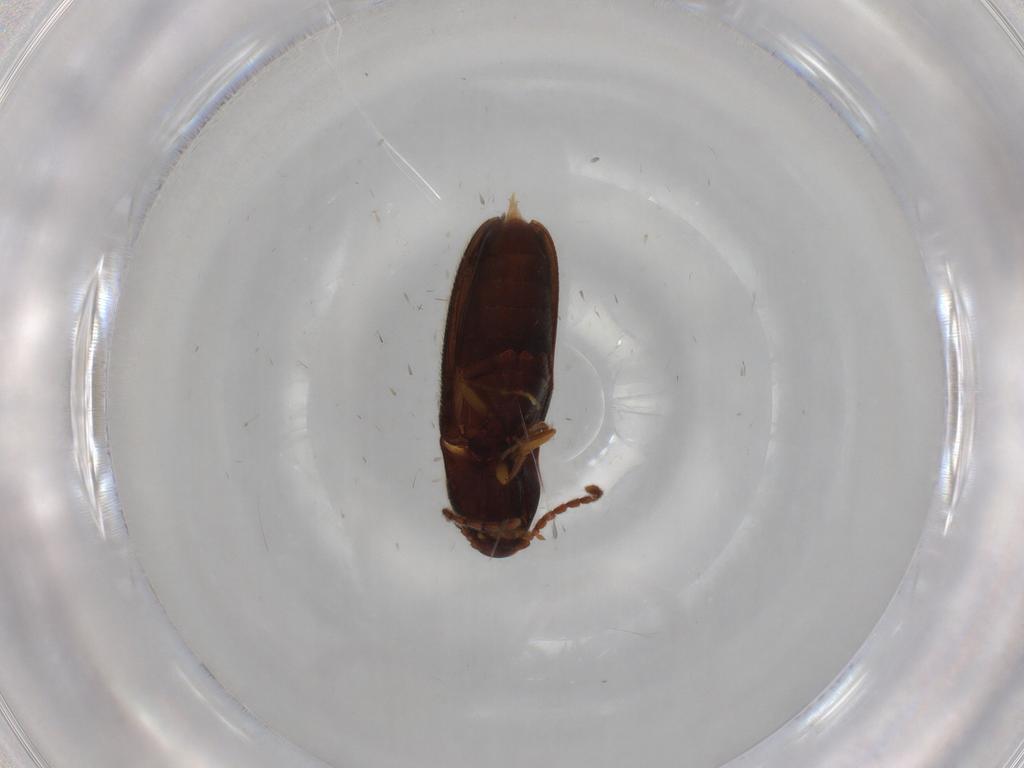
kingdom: Animalia
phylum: Arthropoda
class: Insecta
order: Coleoptera
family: Elateridae
